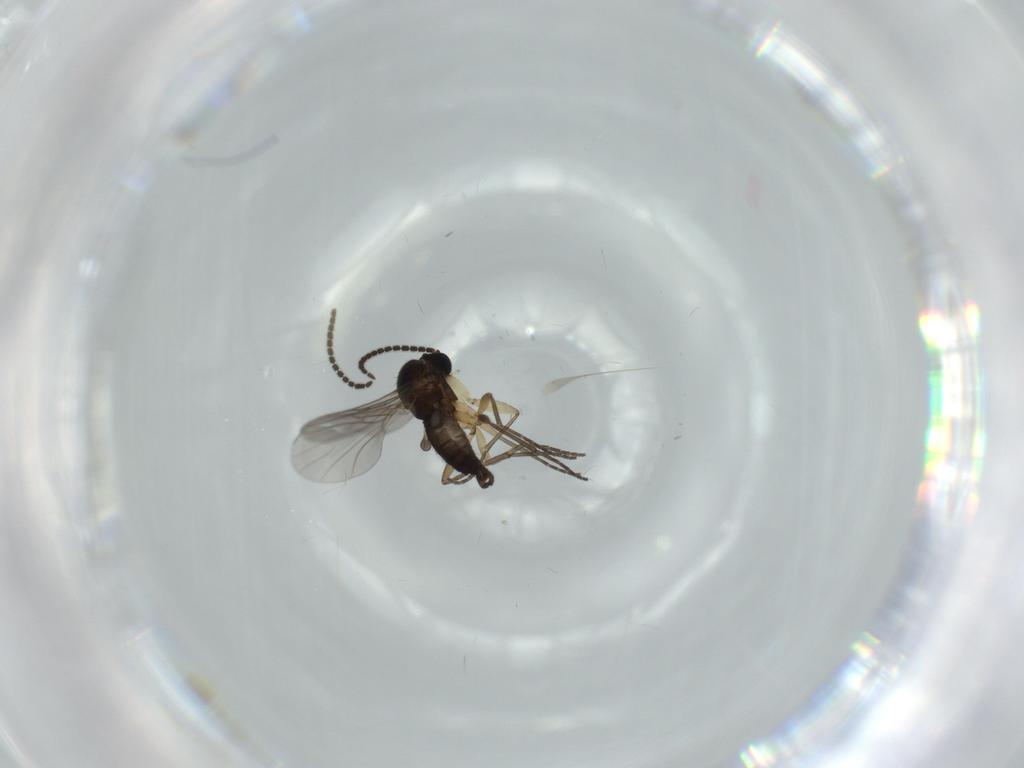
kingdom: Animalia
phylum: Arthropoda
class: Insecta
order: Diptera
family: Sciaridae
